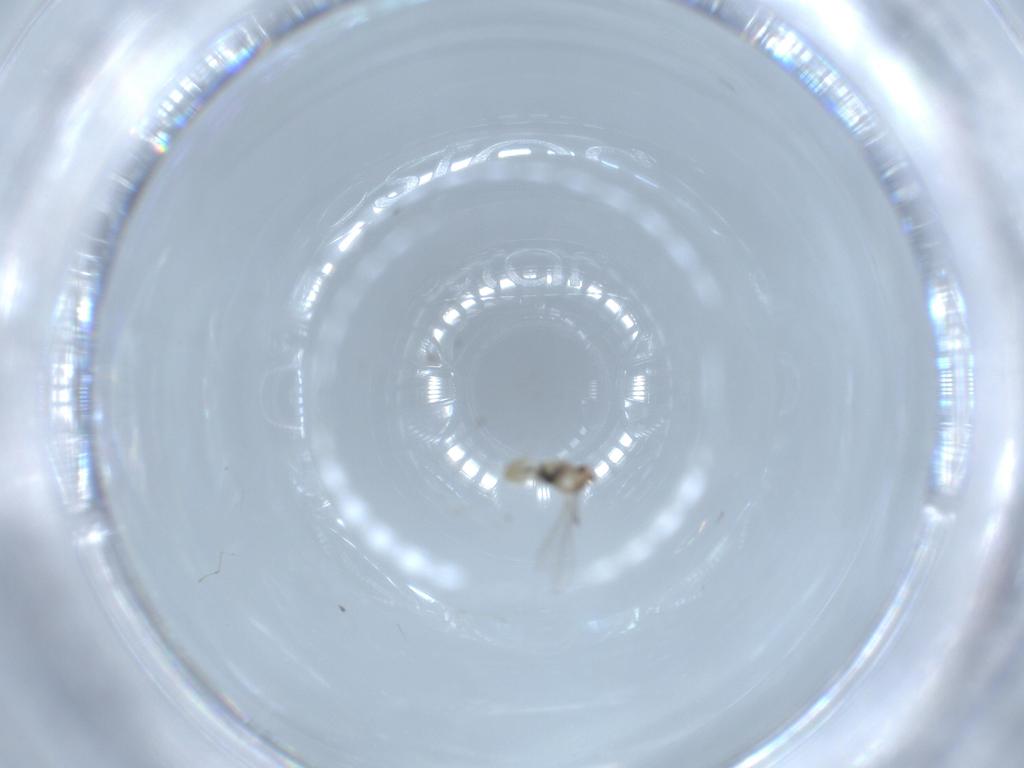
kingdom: Animalia
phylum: Arthropoda
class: Insecta
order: Diptera
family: Cecidomyiidae
